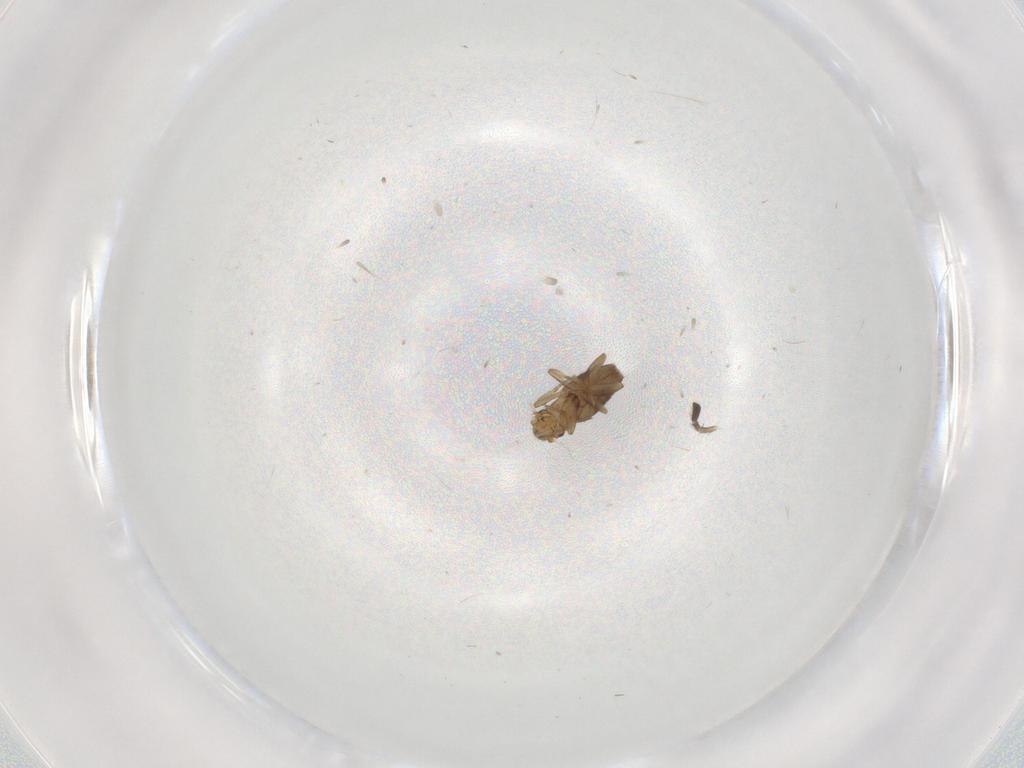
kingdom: Animalia
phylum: Arthropoda
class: Insecta
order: Diptera
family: Phoridae
